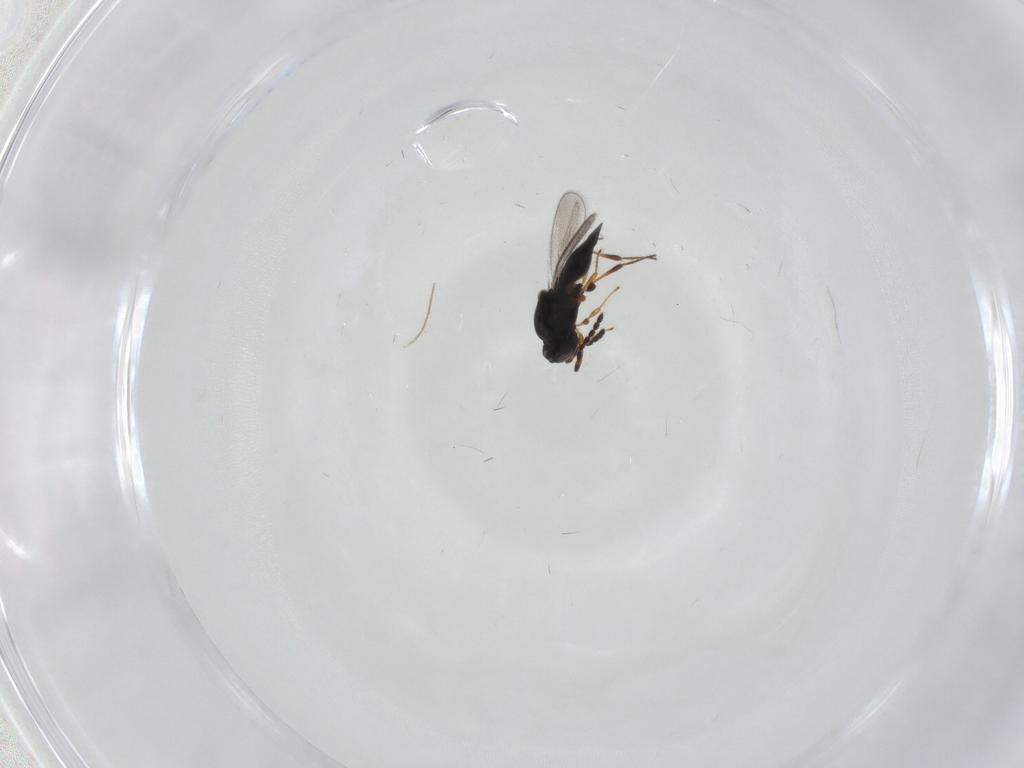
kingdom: Animalia
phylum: Arthropoda
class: Insecta
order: Hymenoptera
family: Platygastridae
